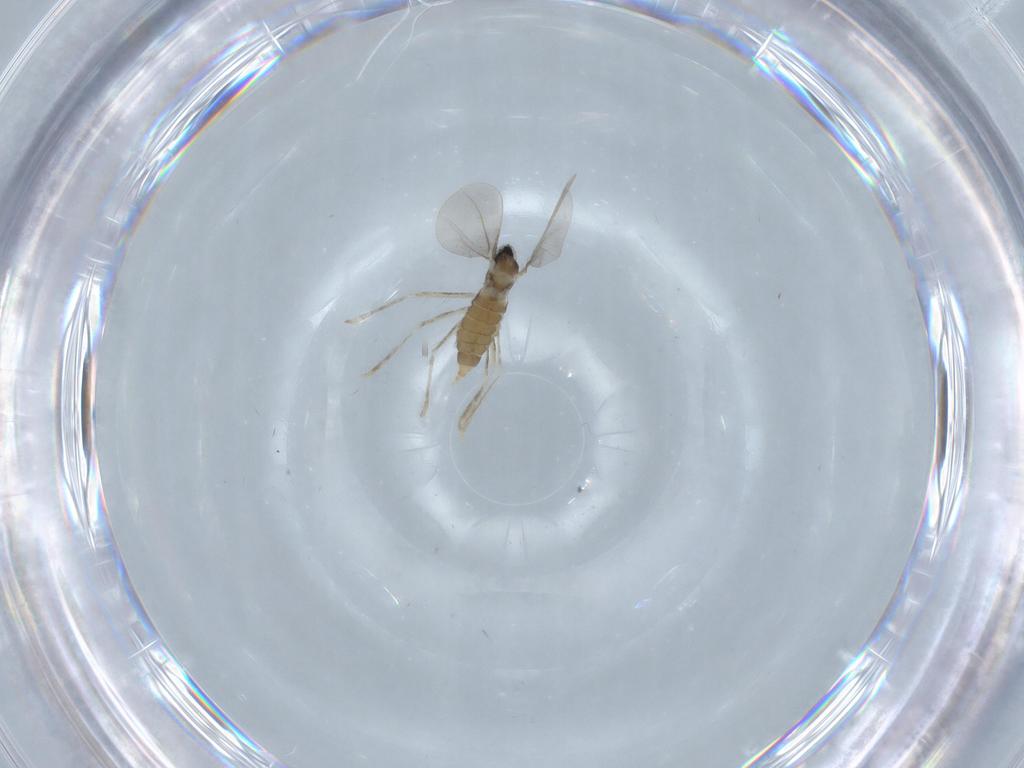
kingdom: Animalia
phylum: Arthropoda
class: Insecta
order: Diptera
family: Cecidomyiidae
